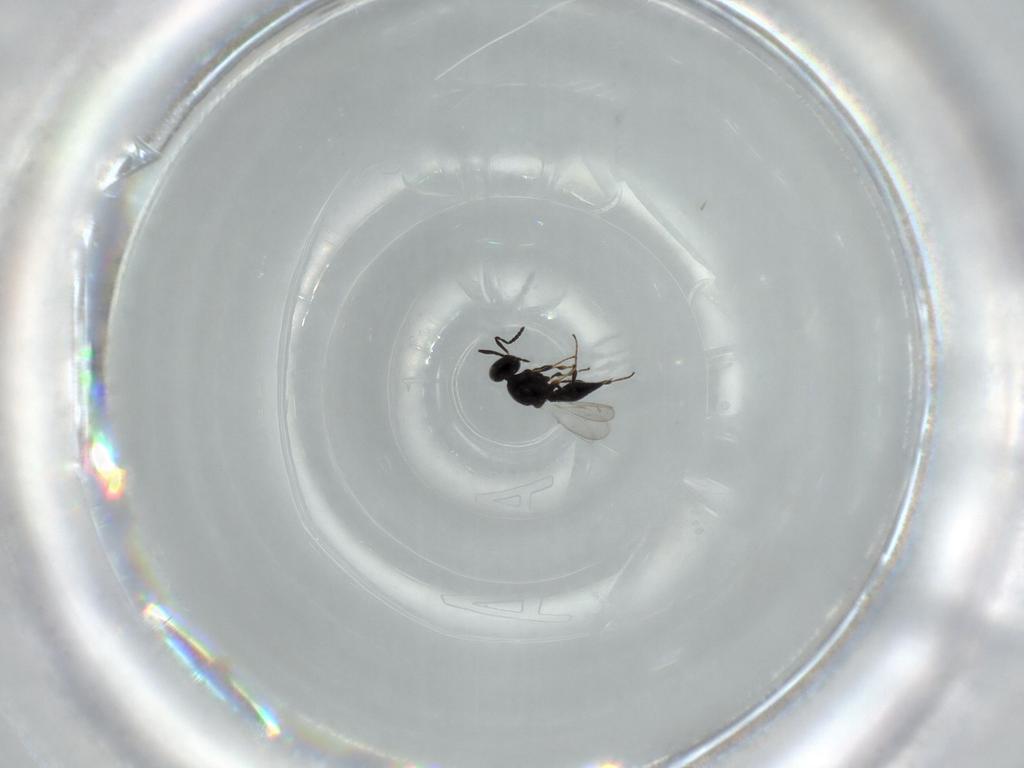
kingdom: Animalia
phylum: Arthropoda
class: Insecta
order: Diptera
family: Mythicomyiidae
